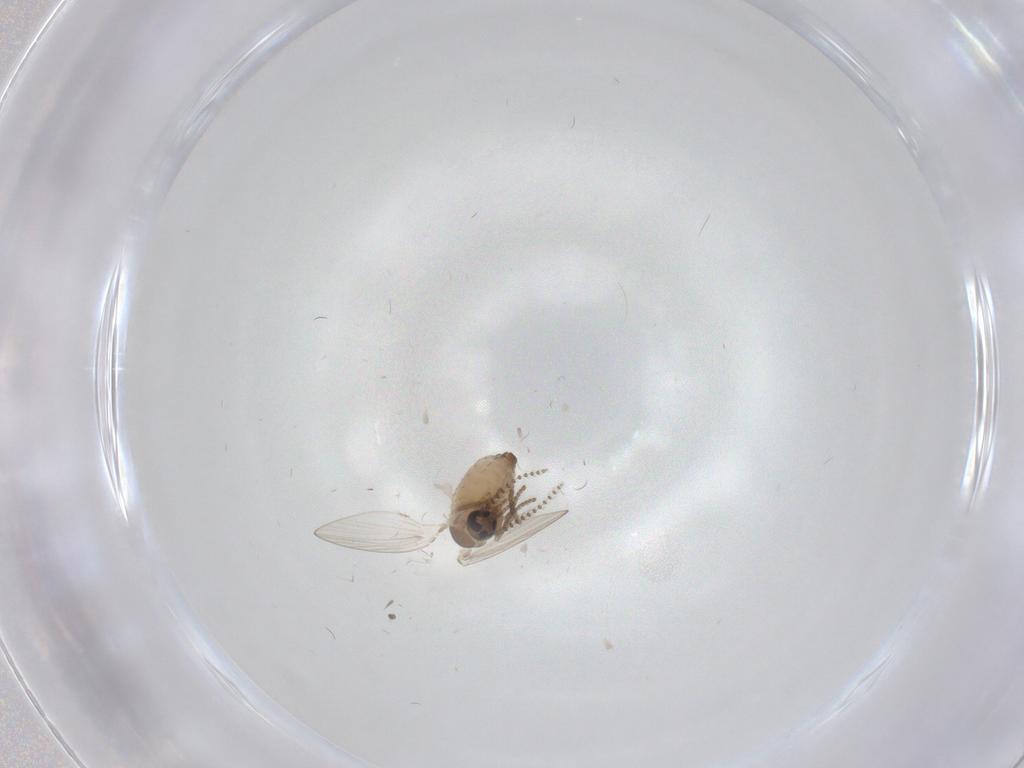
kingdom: Animalia
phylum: Arthropoda
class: Insecta
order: Diptera
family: Psychodidae
